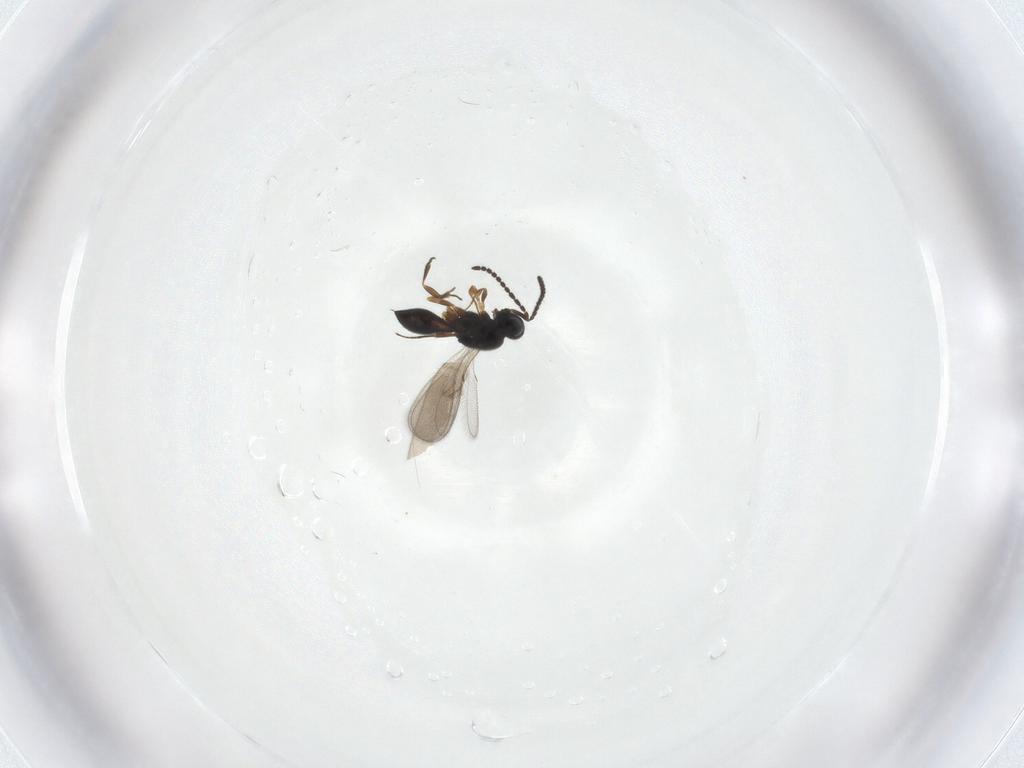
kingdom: Animalia
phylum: Arthropoda
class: Insecta
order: Hymenoptera
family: Scelionidae
